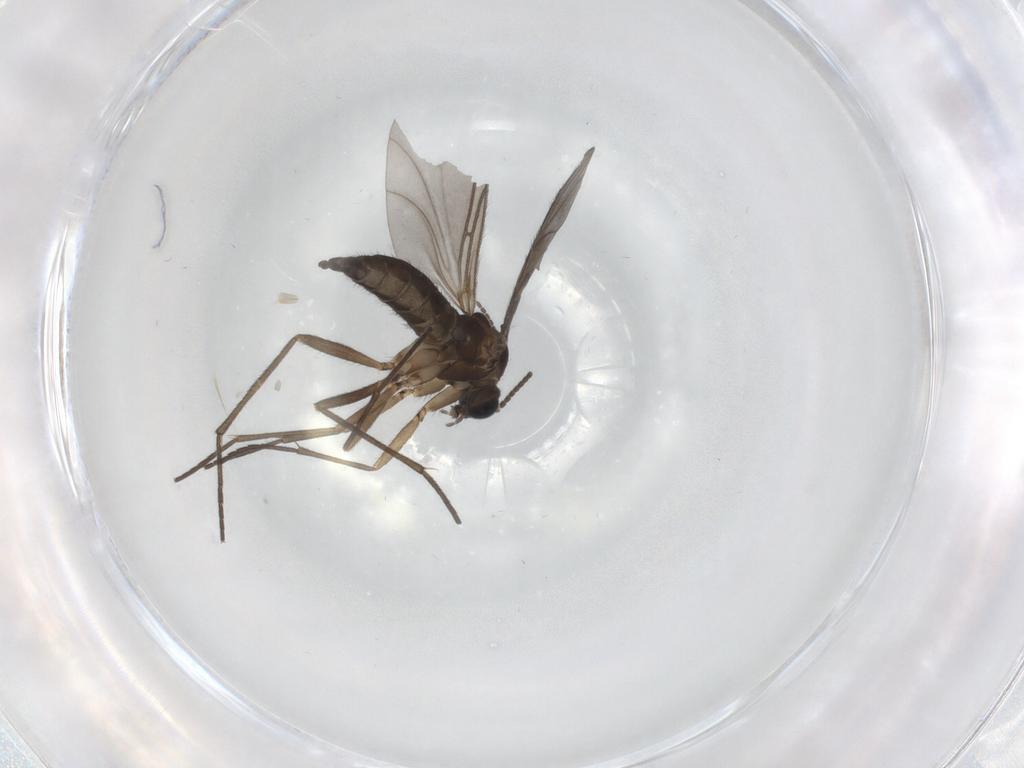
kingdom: Animalia
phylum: Arthropoda
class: Insecta
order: Diptera
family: Sciaridae
